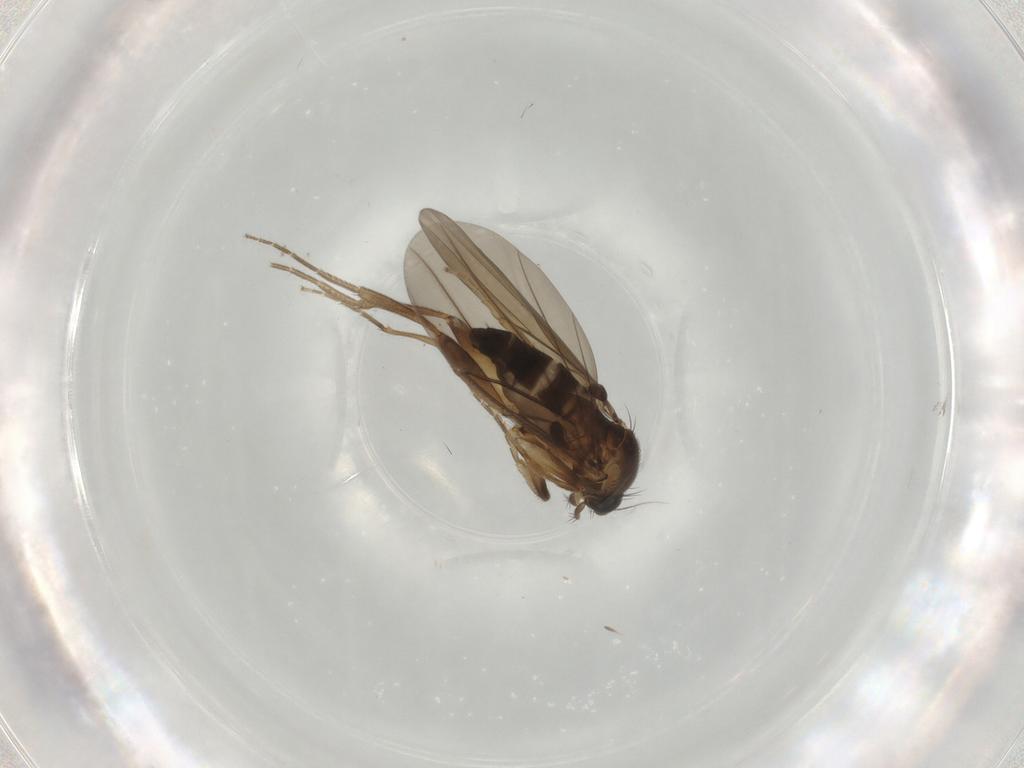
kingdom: Animalia
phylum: Arthropoda
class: Insecta
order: Diptera
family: Phoridae
